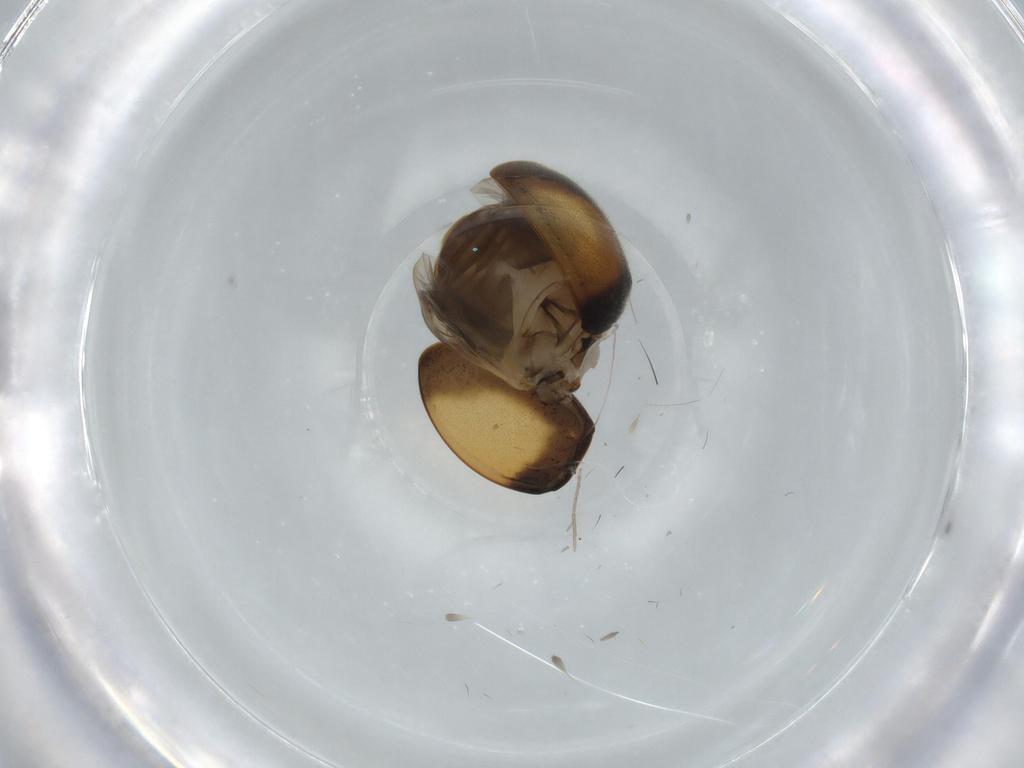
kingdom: Animalia
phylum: Arthropoda
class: Insecta
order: Coleoptera
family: Coccinellidae
